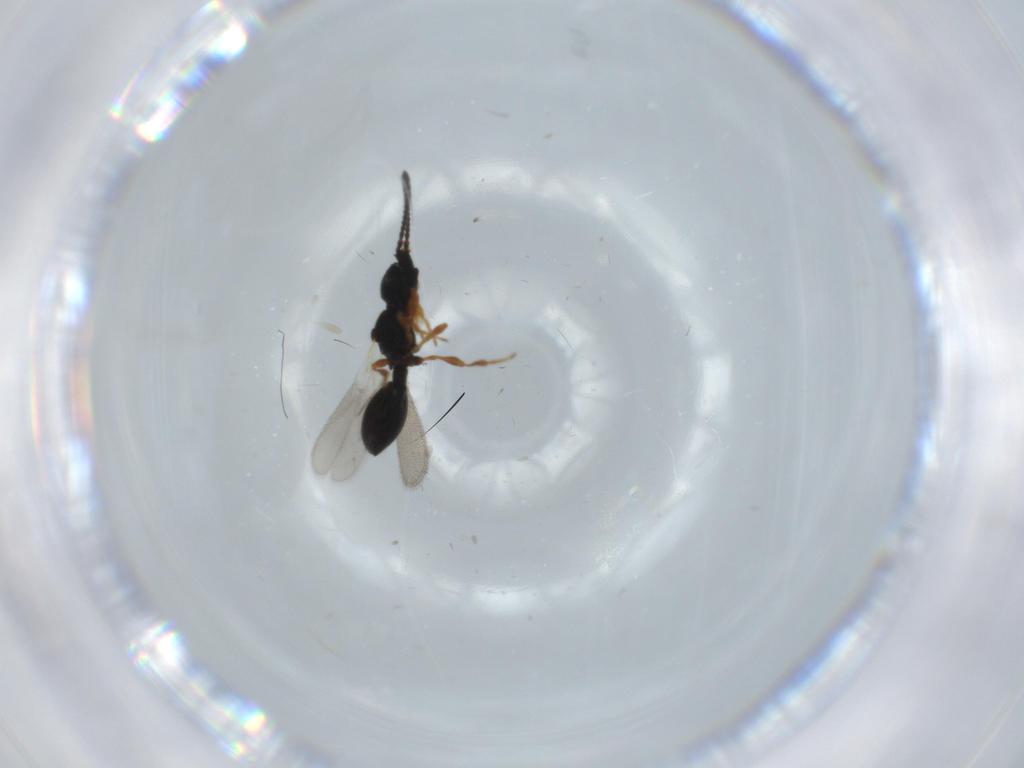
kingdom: Animalia
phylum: Arthropoda
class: Insecta
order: Hymenoptera
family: Diapriidae
